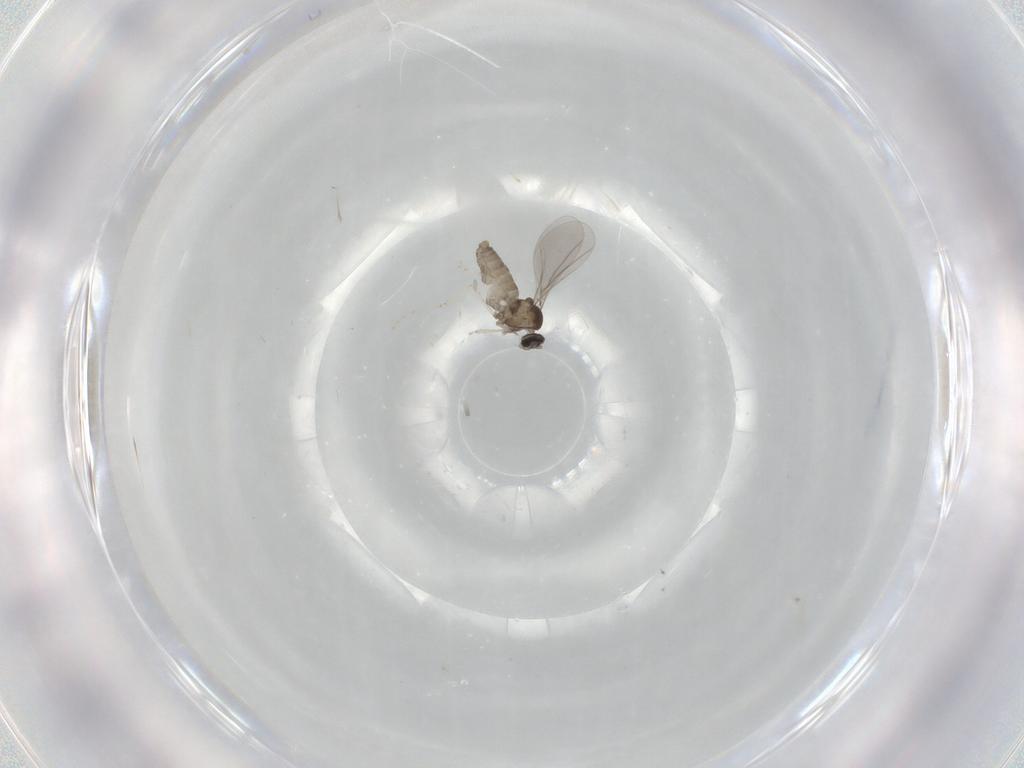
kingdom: Animalia
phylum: Arthropoda
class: Insecta
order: Diptera
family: Cecidomyiidae
